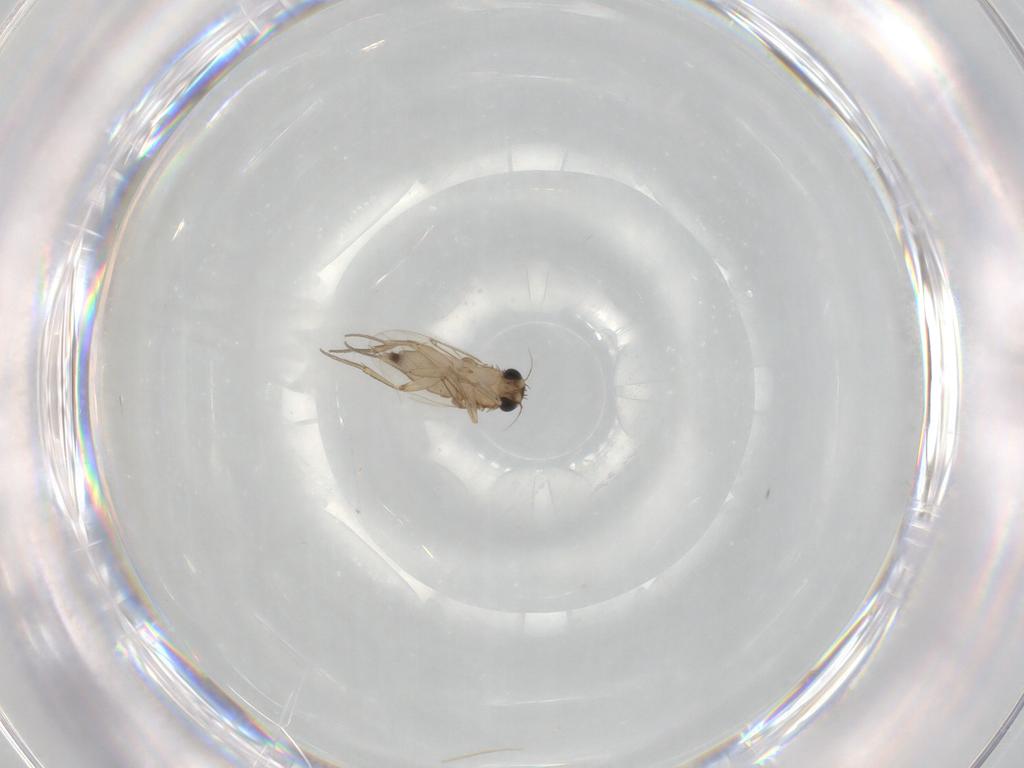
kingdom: Animalia
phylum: Arthropoda
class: Insecta
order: Diptera
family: Phoridae
